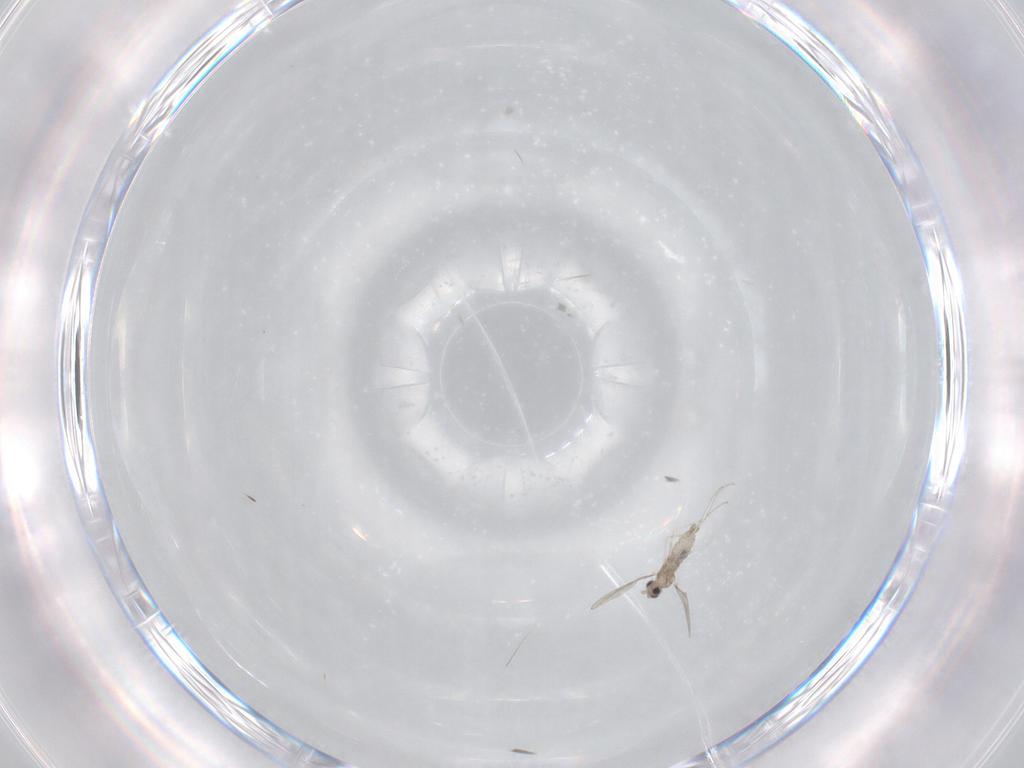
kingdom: Animalia
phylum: Arthropoda
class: Insecta
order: Diptera
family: Cecidomyiidae
